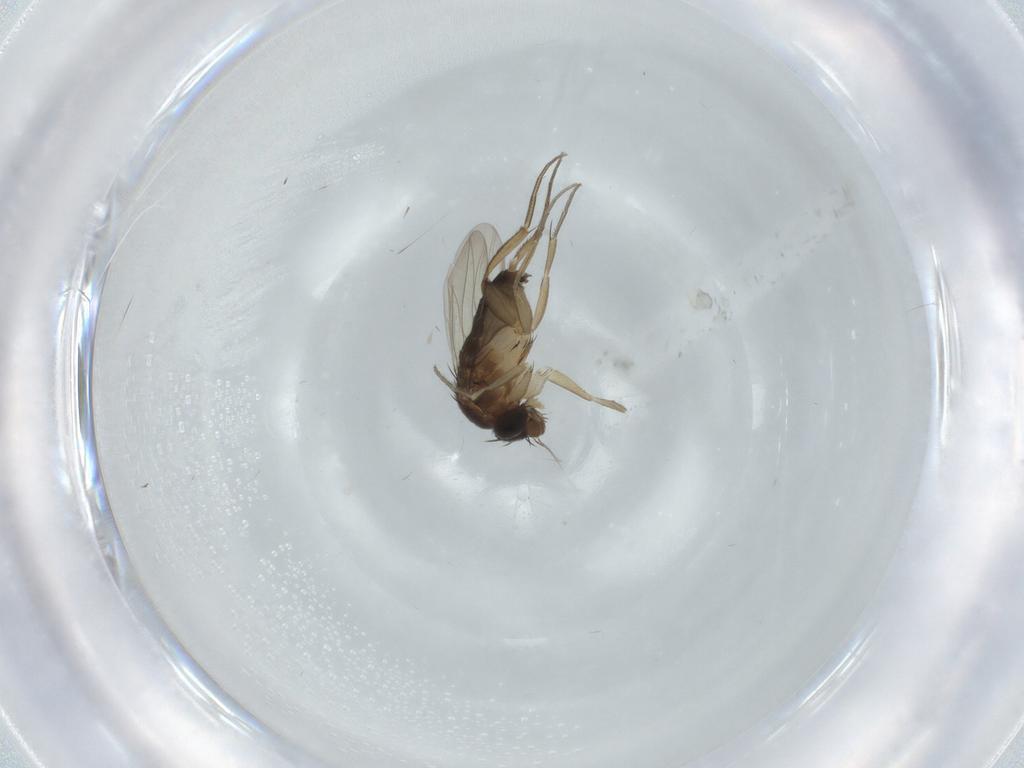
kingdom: Animalia
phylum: Arthropoda
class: Insecta
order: Diptera
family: Phoridae
